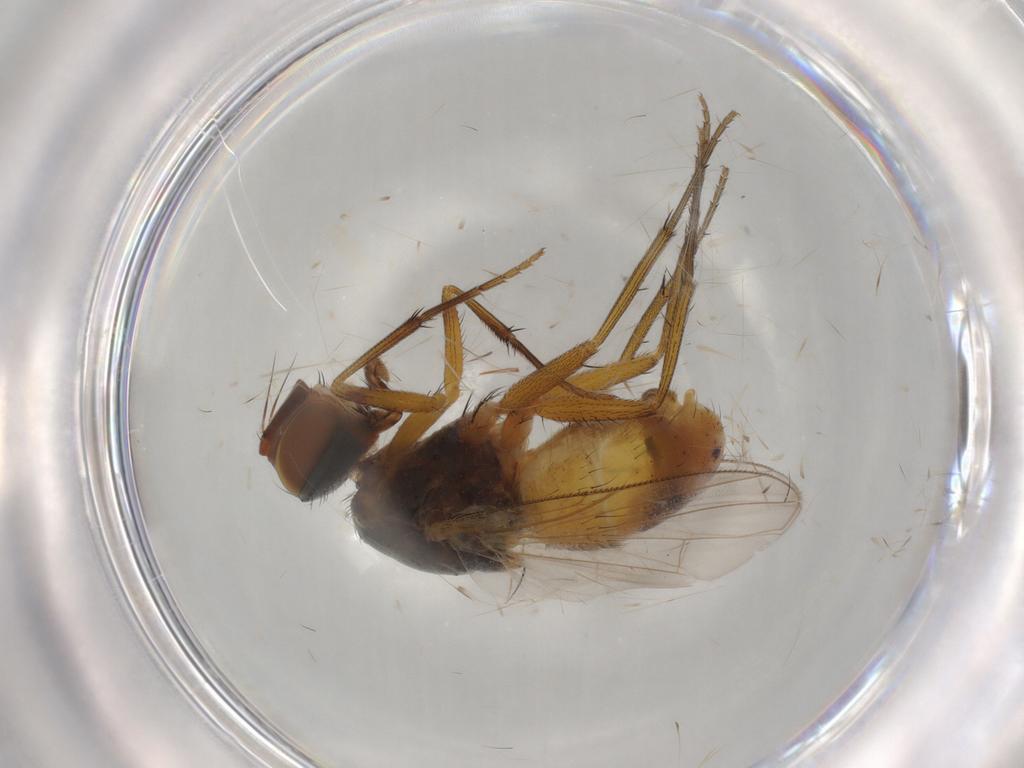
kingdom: Animalia
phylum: Arthropoda
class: Insecta
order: Diptera
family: Muscidae
